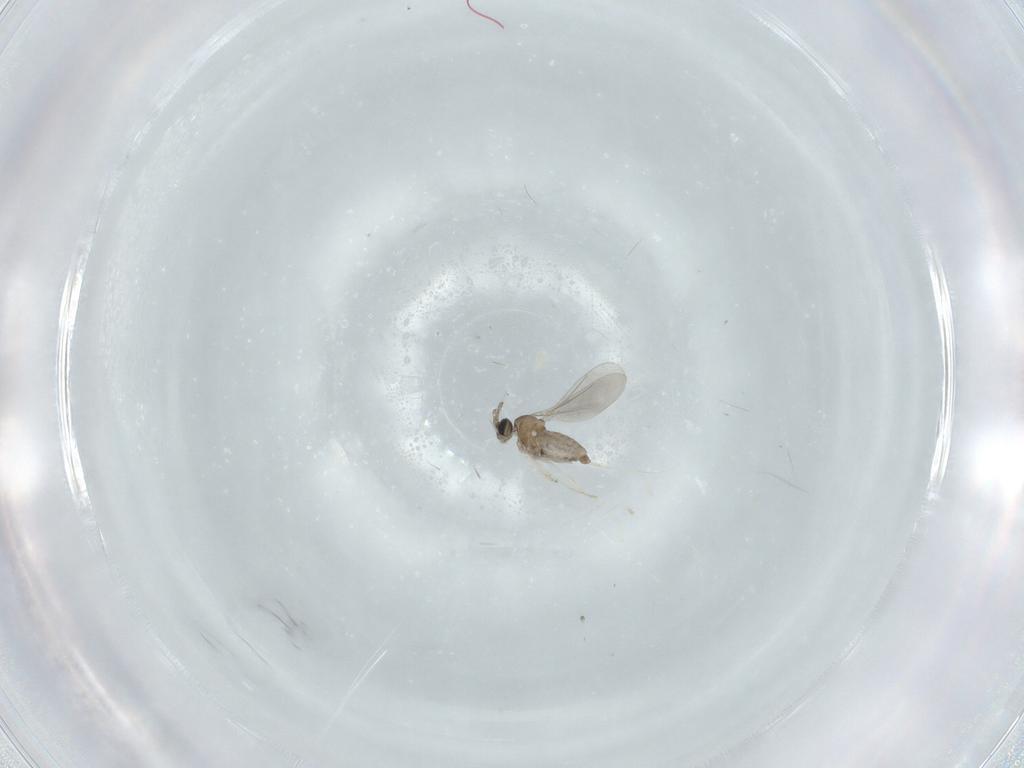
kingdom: Animalia
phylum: Arthropoda
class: Insecta
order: Diptera
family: Cecidomyiidae
